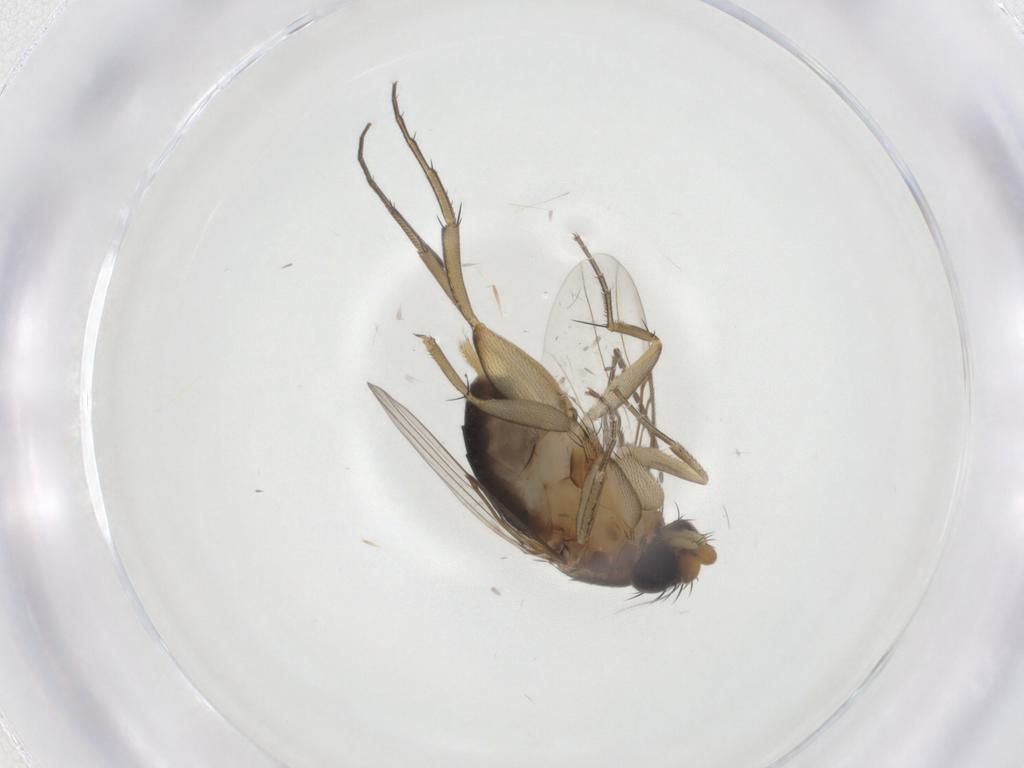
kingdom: Animalia
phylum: Arthropoda
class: Insecta
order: Diptera
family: Phoridae
